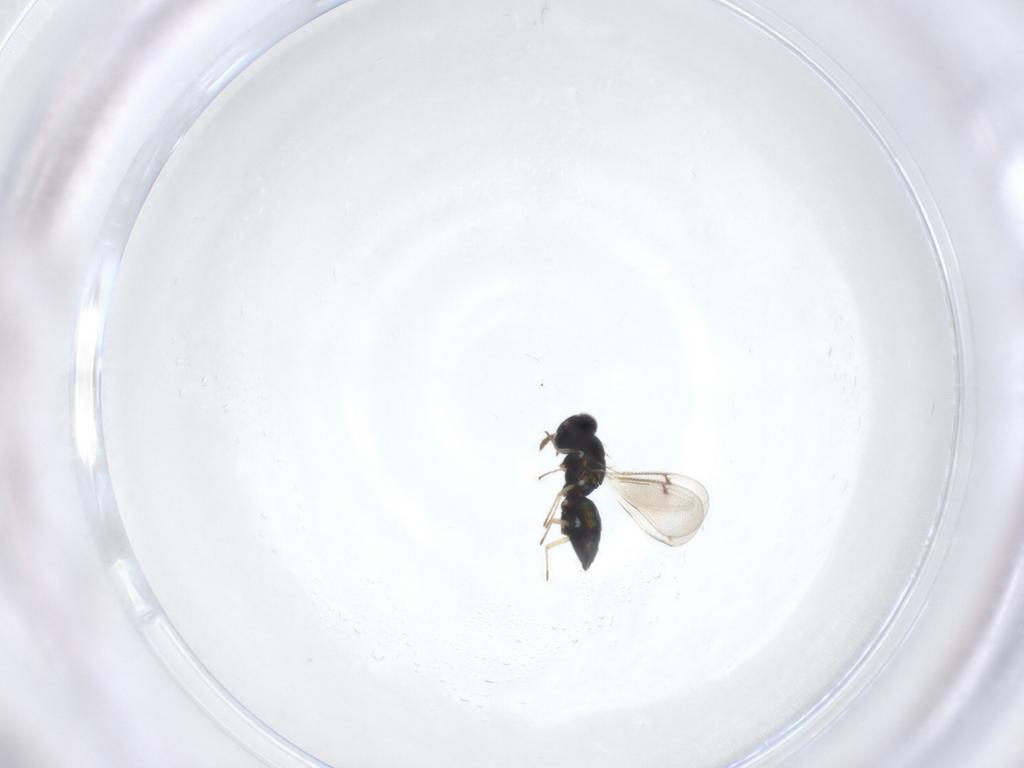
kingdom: Animalia
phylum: Arthropoda
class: Insecta
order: Hymenoptera
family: Eulophidae
